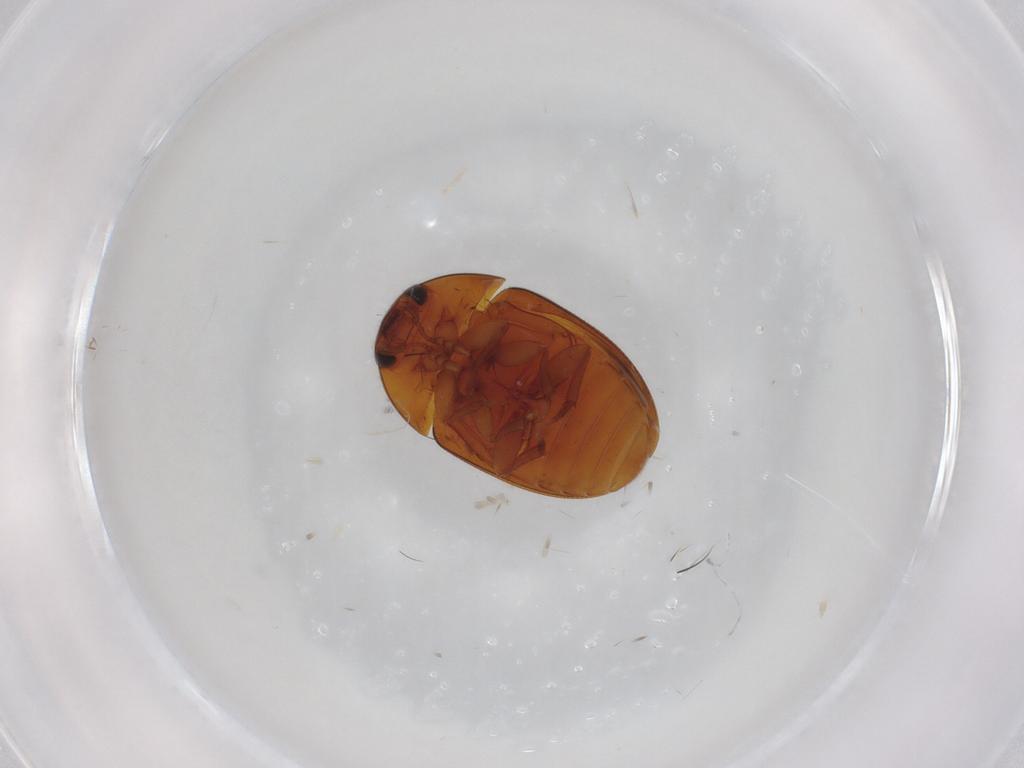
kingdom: Animalia
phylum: Arthropoda
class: Insecta
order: Coleoptera
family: Phalacridae
